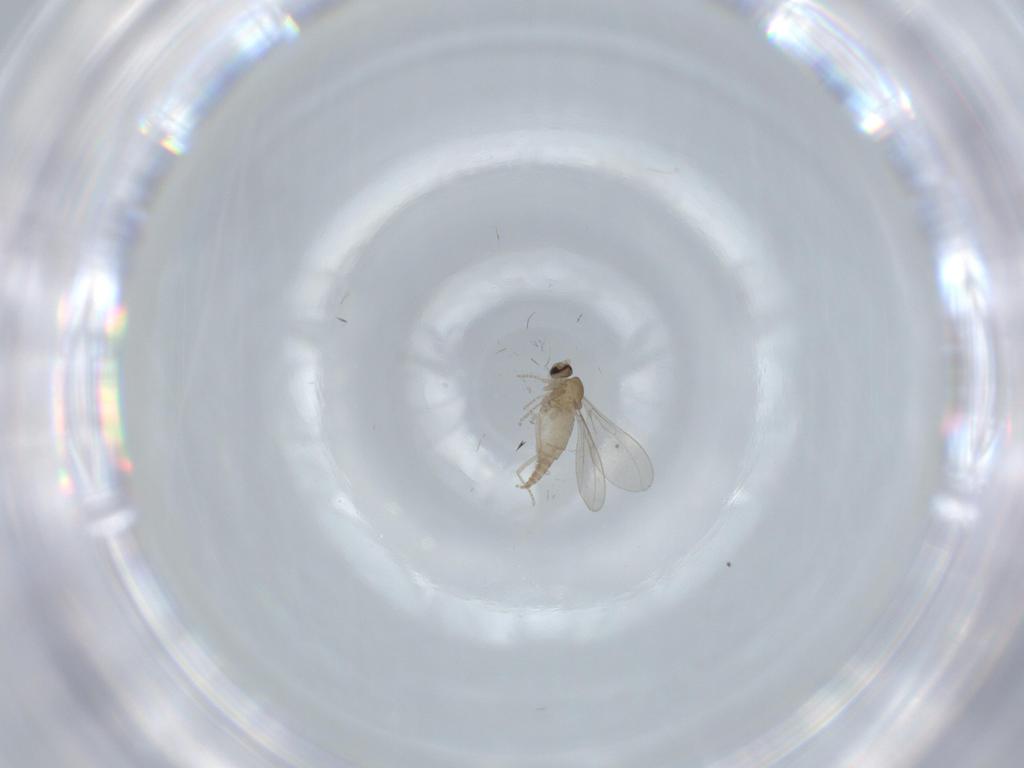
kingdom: Animalia
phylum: Arthropoda
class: Insecta
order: Diptera
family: Cecidomyiidae
